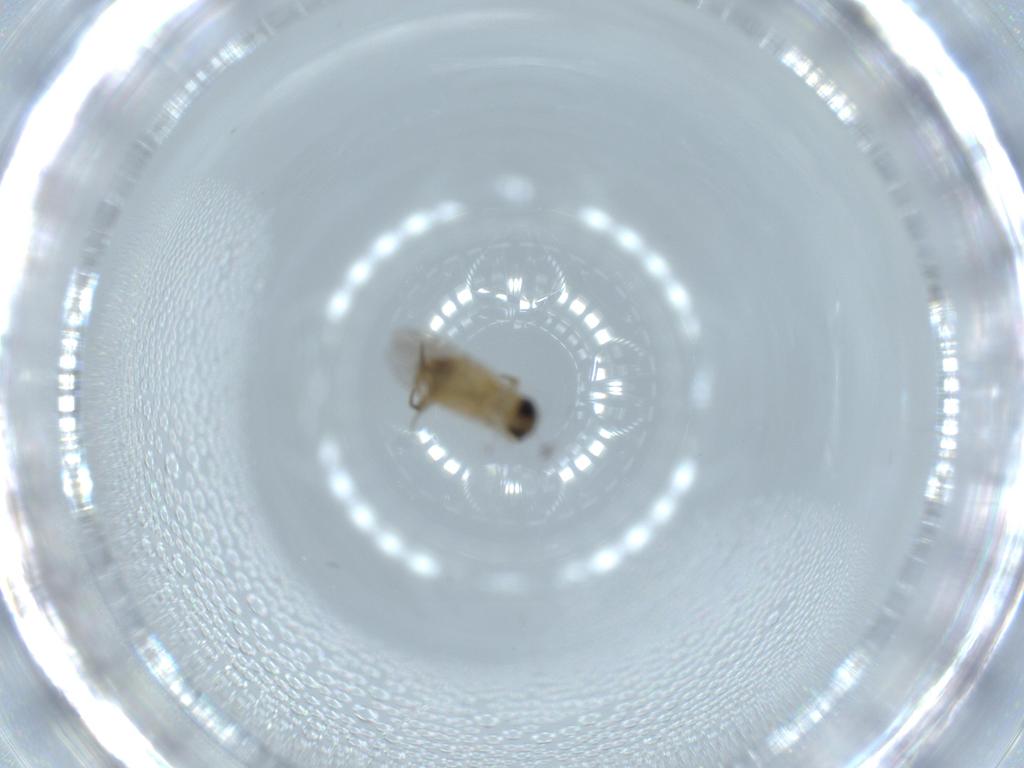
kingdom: Animalia
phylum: Arthropoda
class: Insecta
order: Diptera
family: Phoridae
